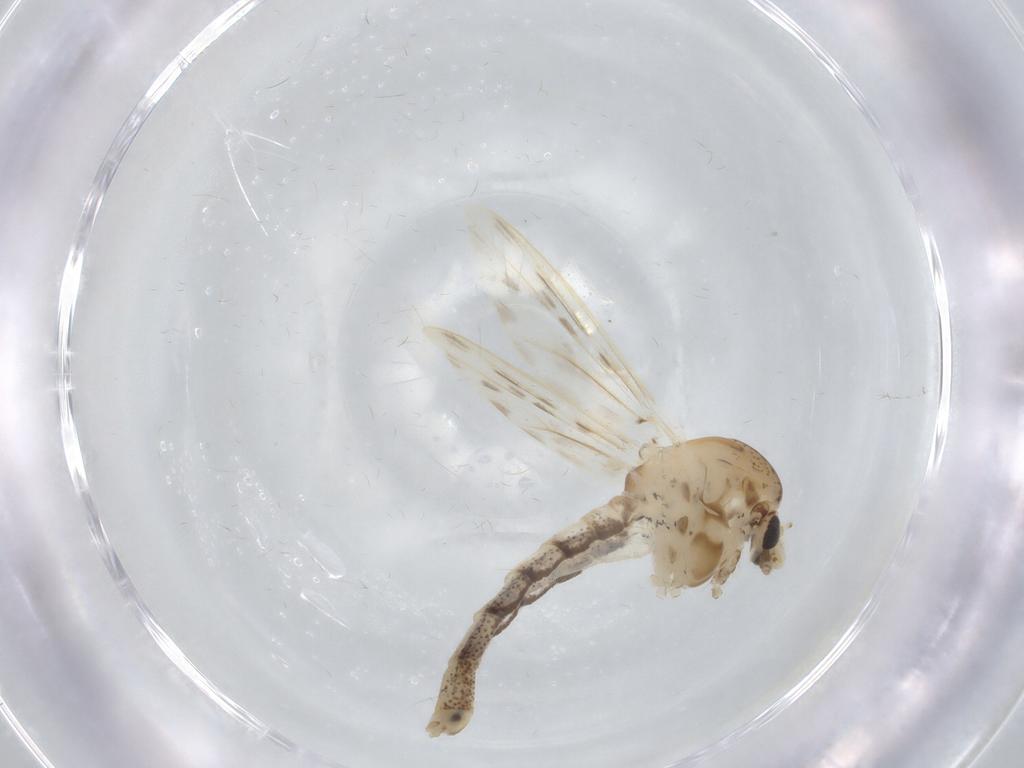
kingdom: Animalia
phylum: Arthropoda
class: Insecta
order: Diptera
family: Chaoboridae
